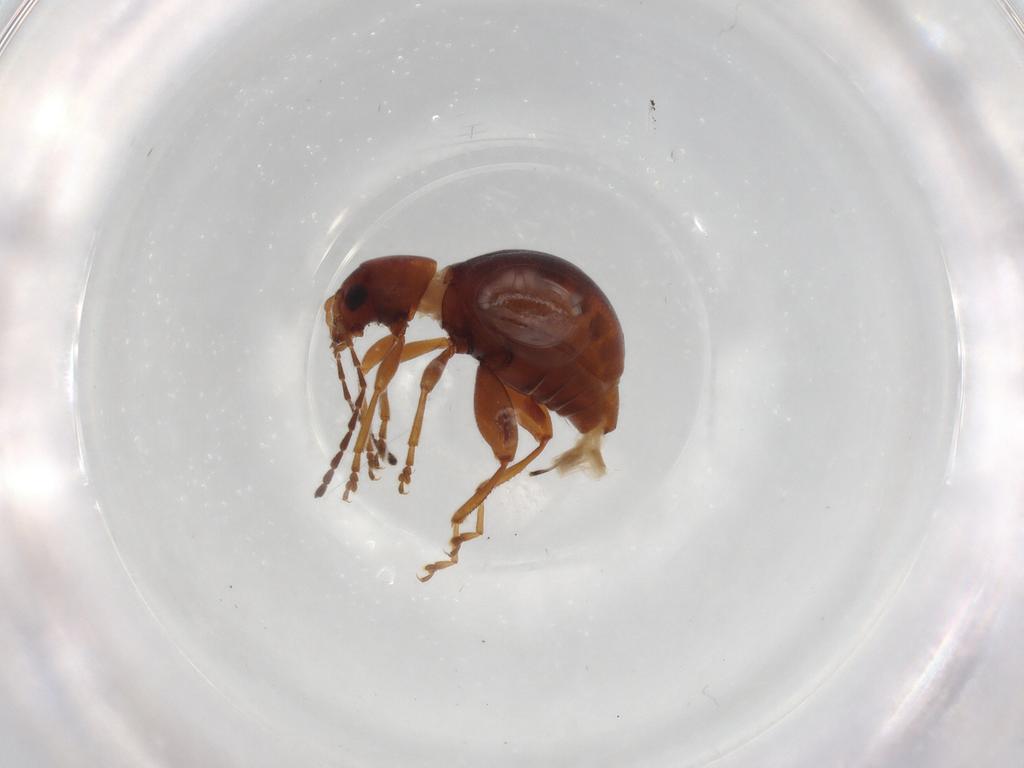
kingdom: Animalia
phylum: Arthropoda
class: Insecta
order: Coleoptera
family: Chrysomelidae
